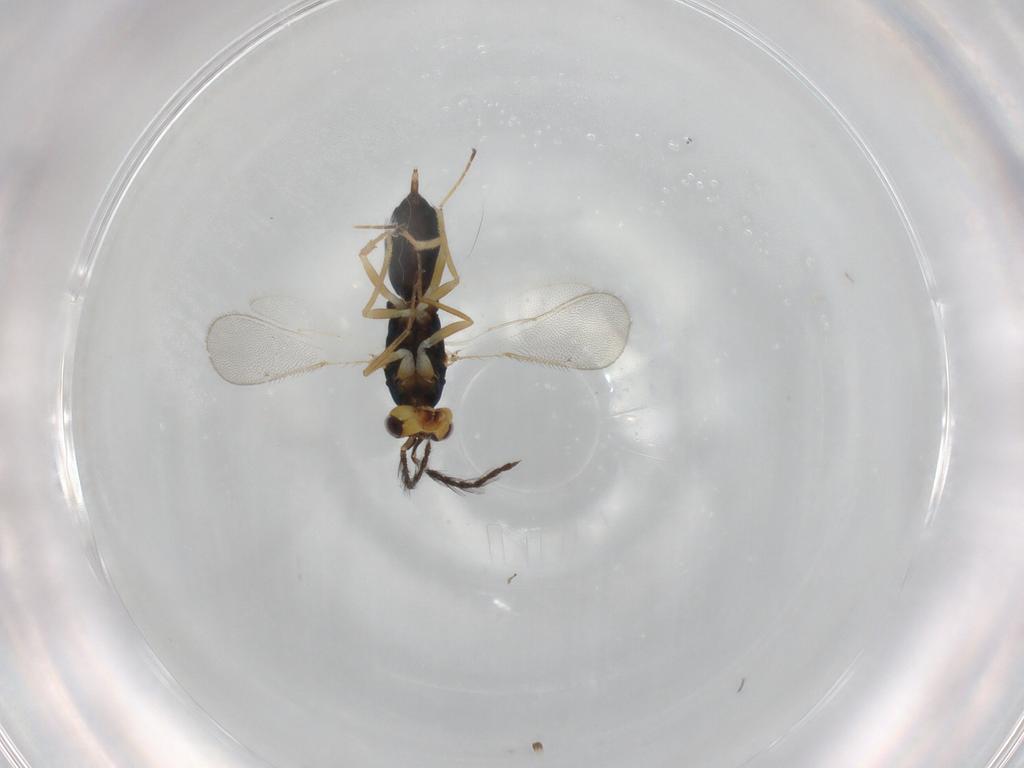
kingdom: Animalia
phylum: Arthropoda
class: Insecta
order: Hymenoptera
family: Eulophidae
